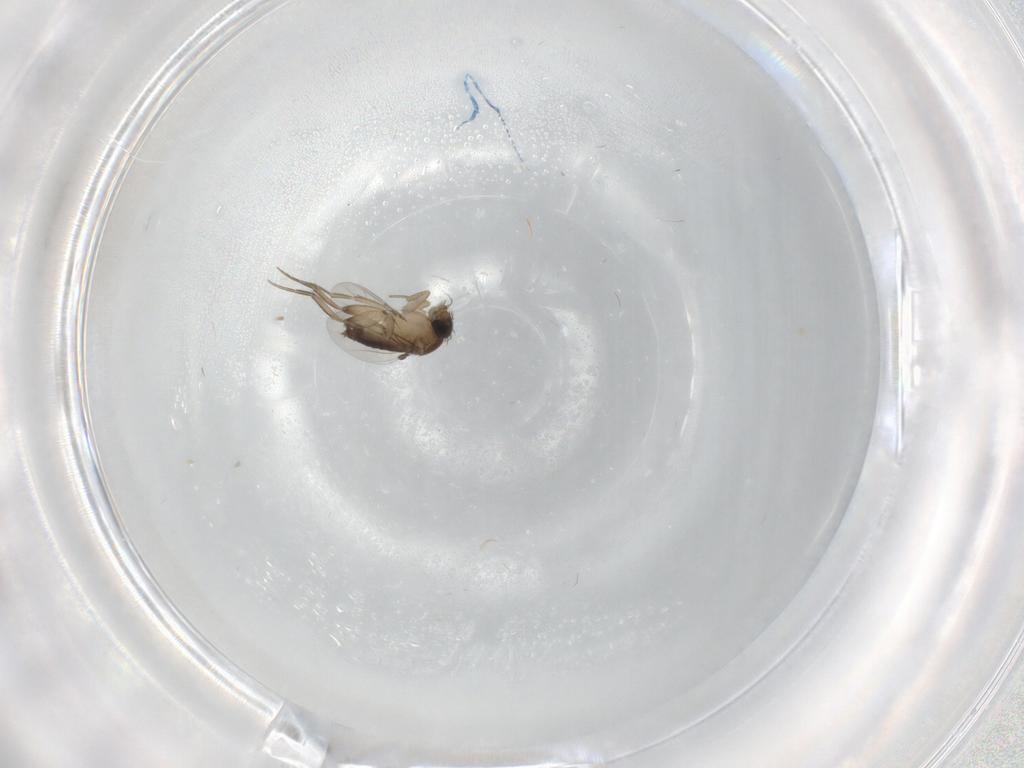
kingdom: Animalia
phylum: Arthropoda
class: Insecta
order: Diptera
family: Phoridae
